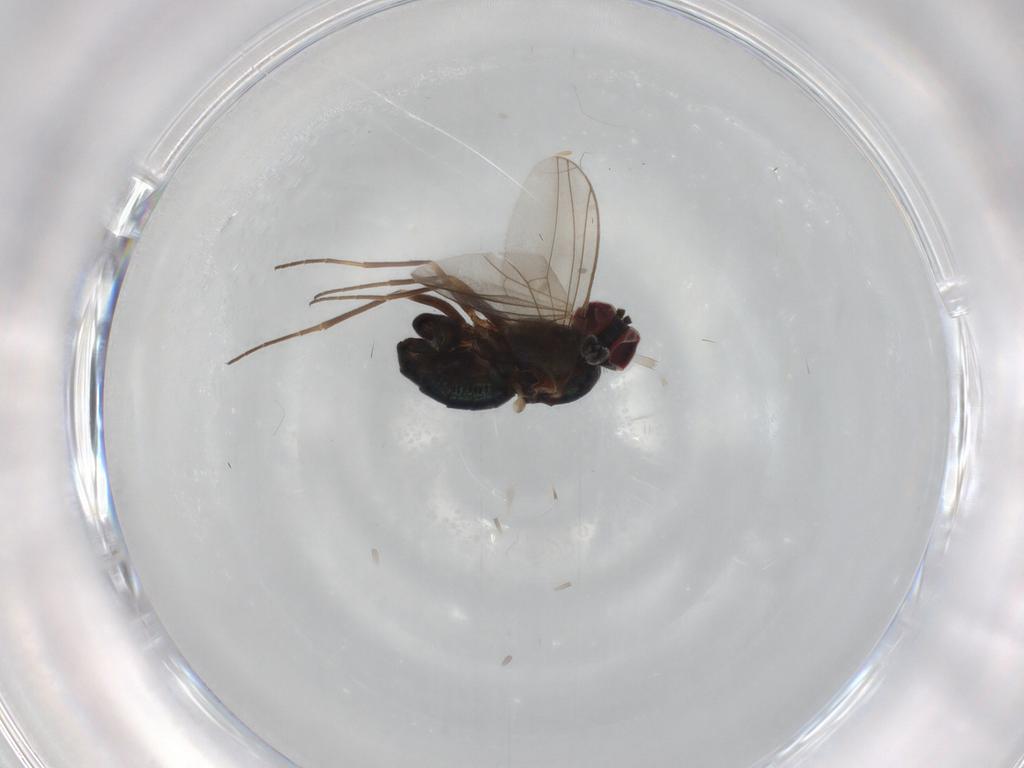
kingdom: Animalia
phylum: Arthropoda
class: Insecta
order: Diptera
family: Dolichopodidae
